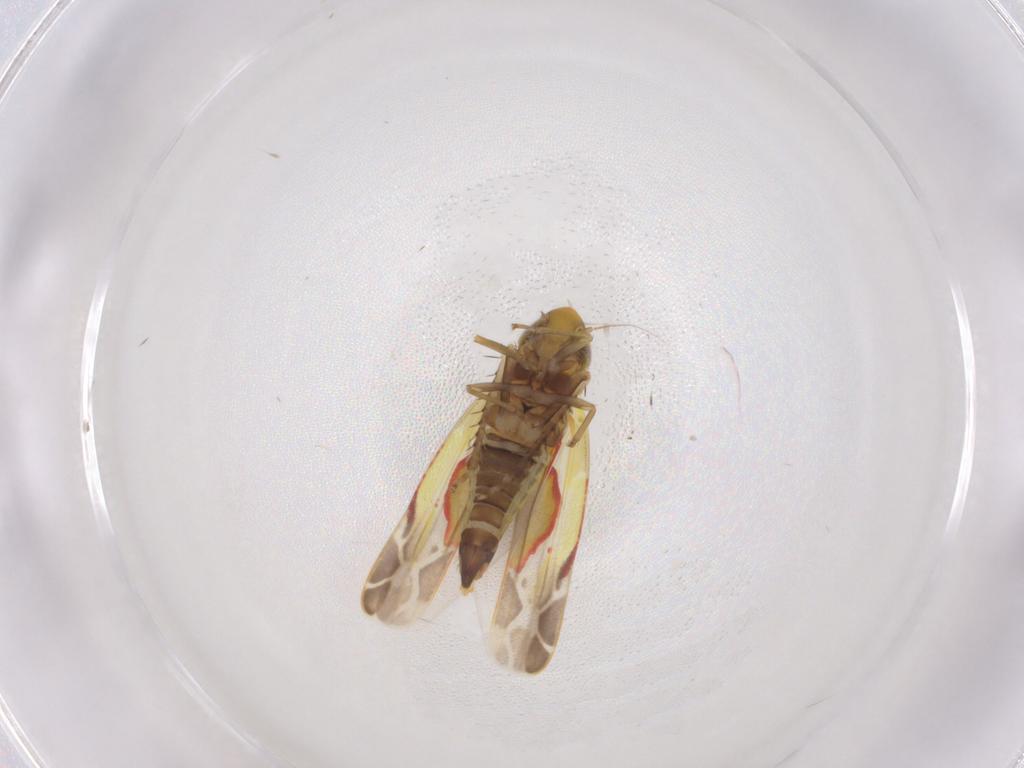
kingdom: Animalia
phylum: Arthropoda
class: Insecta
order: Hemiptera
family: Cicadellidae
